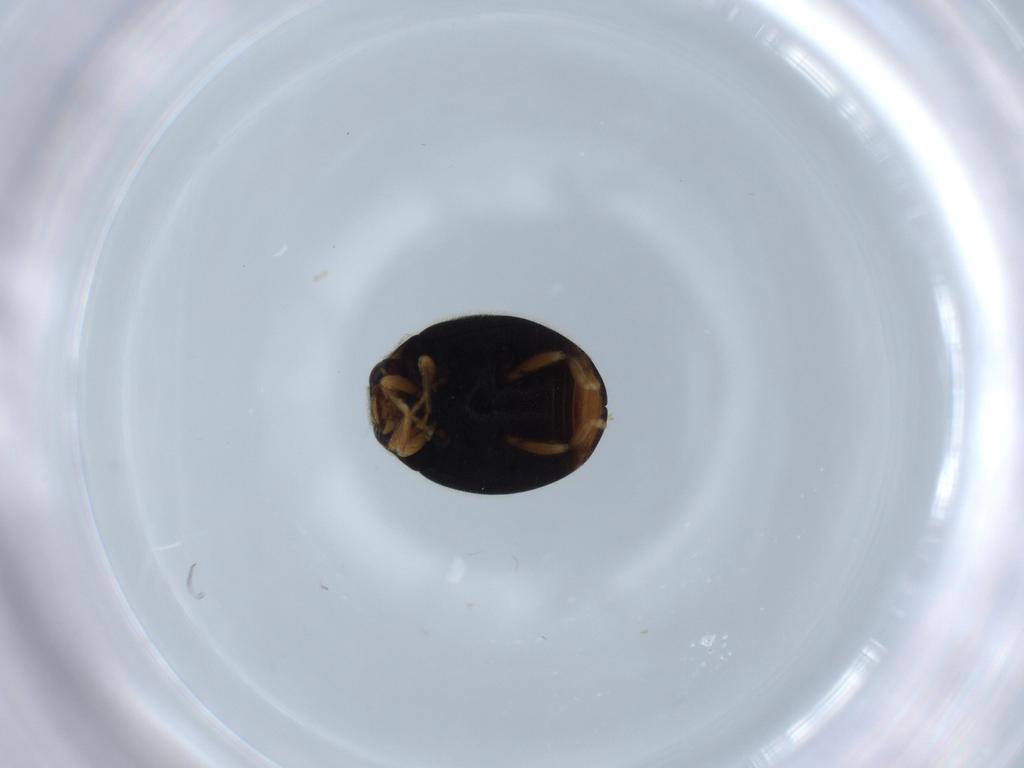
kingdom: Animalia
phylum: Arthropoda
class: Insecta
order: Coleoptera
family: Coccinellidae
